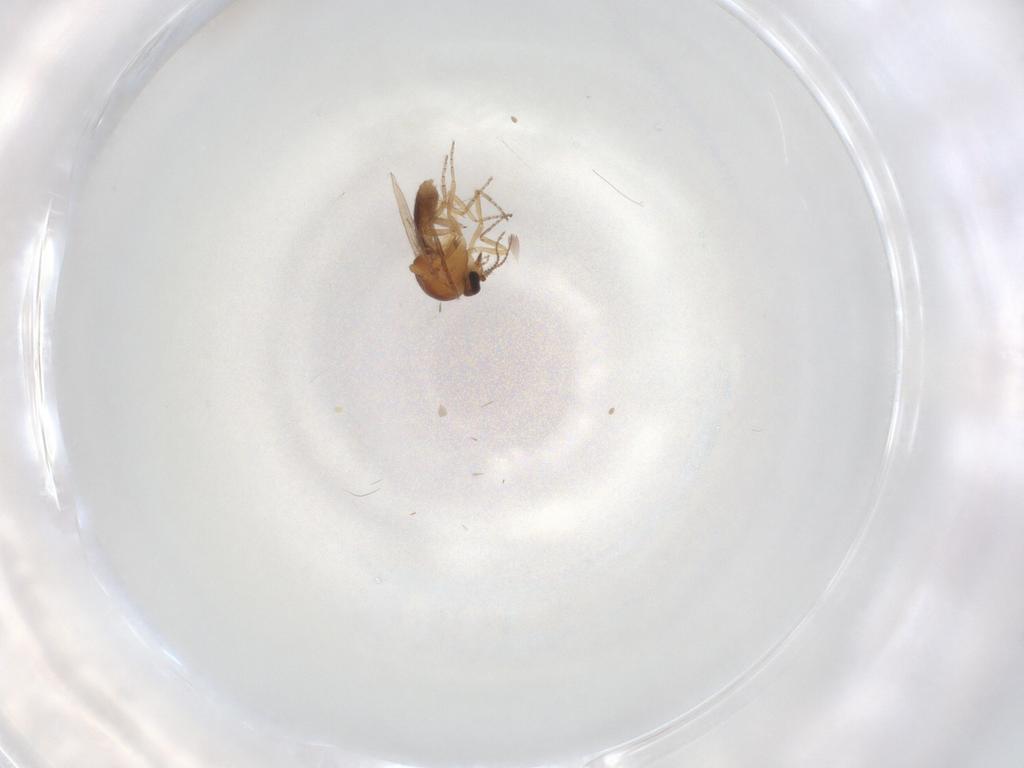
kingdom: Animalia
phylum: Arthropoda
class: Insecta
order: Diptera
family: Ceratopogonidae
